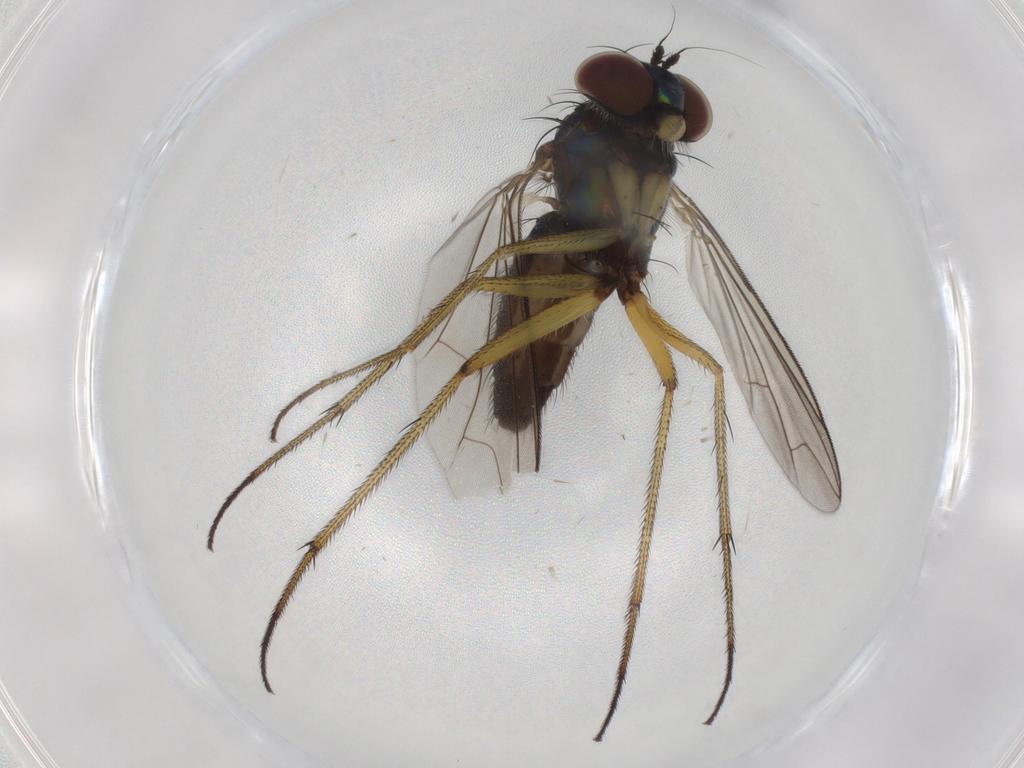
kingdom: Animalia
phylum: Arthropoda
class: Insecta
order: Diptera
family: Dolichopodidae
